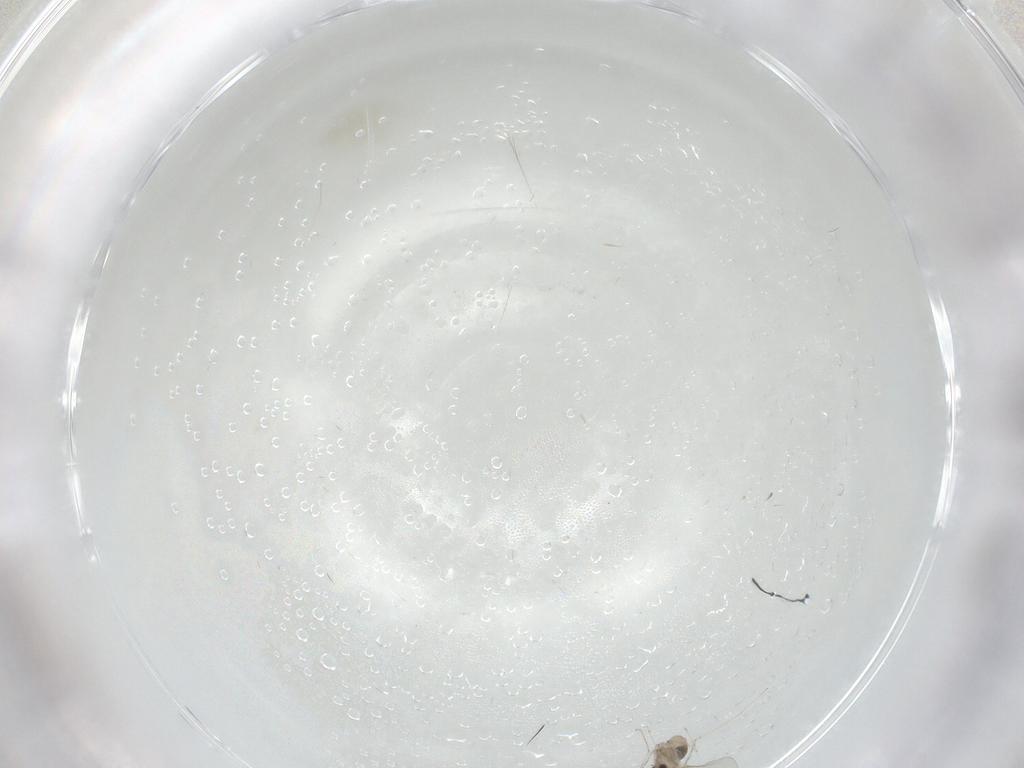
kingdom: Animalia
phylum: Arthropoda
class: Insecta
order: Diptera
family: Cecidomyiidae
